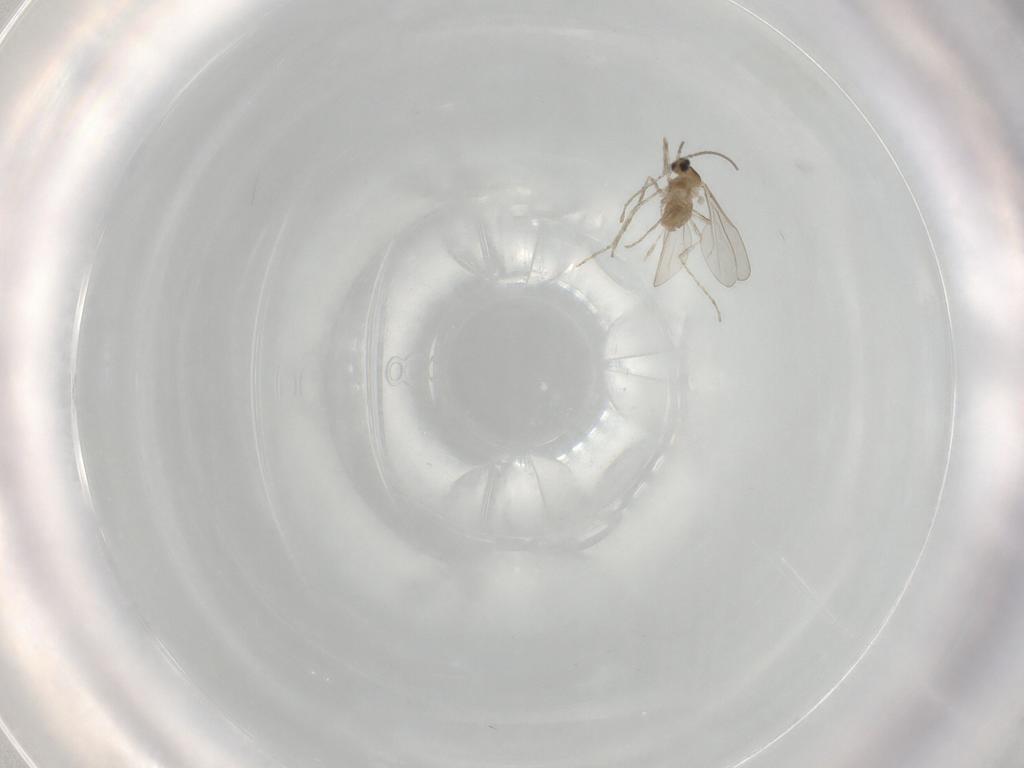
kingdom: Animalia
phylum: Arthropoda
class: Insecta
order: Diptera
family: Cecidomyiidae
